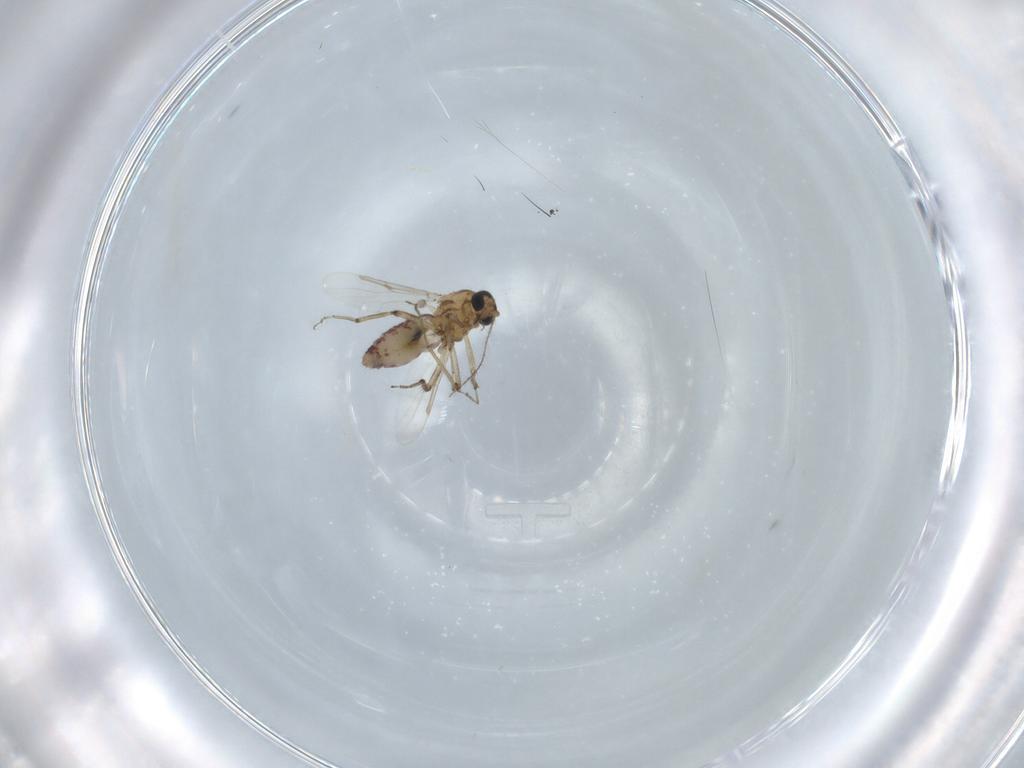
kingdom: Animalia
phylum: Arthropoda
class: Insecta
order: Diptera
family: Ceratopogonidae
